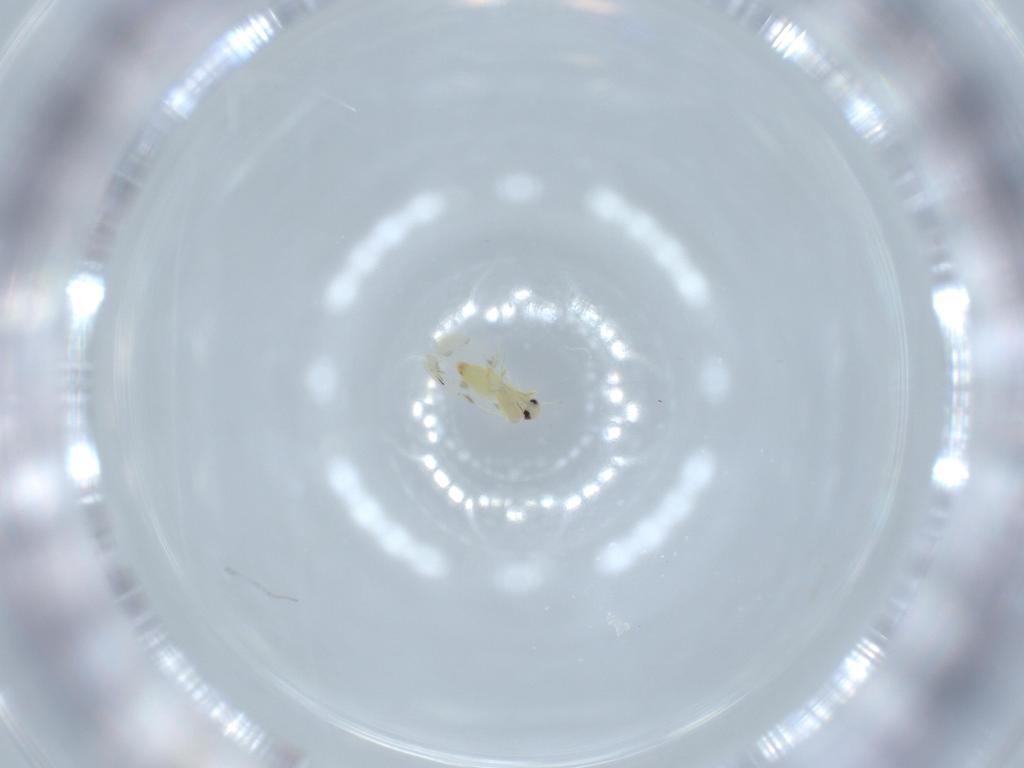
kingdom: Animalia
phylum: Arthropoda
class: Insecta
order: Hemiptera
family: Aleyrodidae
